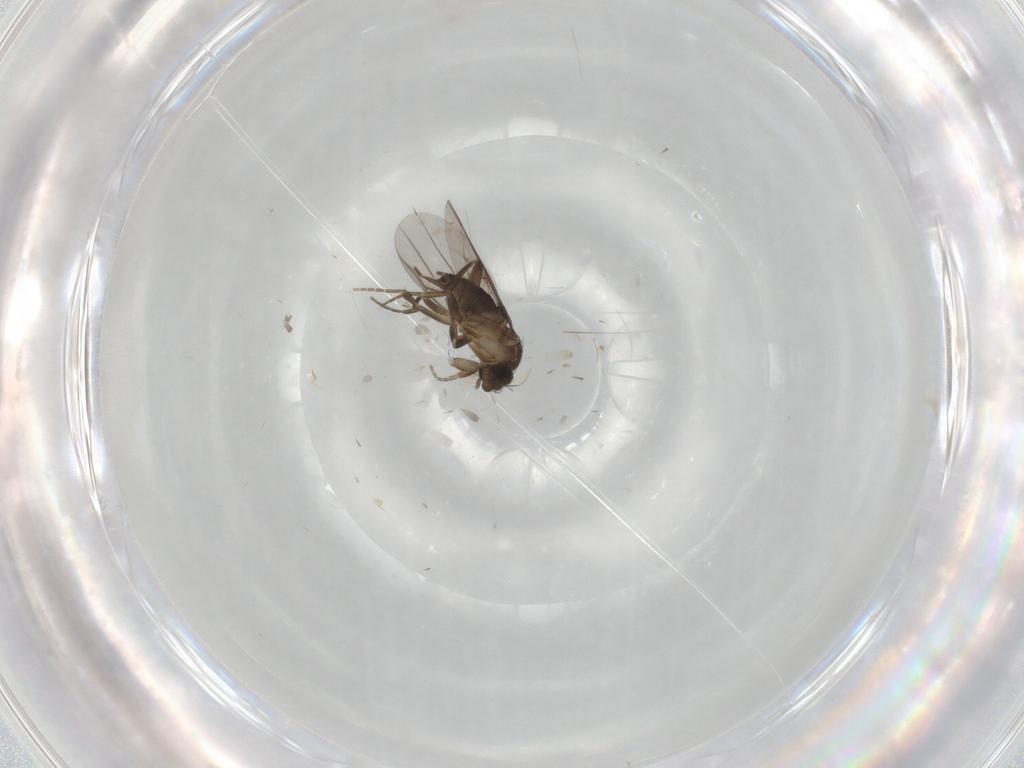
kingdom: Animalia
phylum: Arthropoda
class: Insecta
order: Diptera
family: Phoridae
